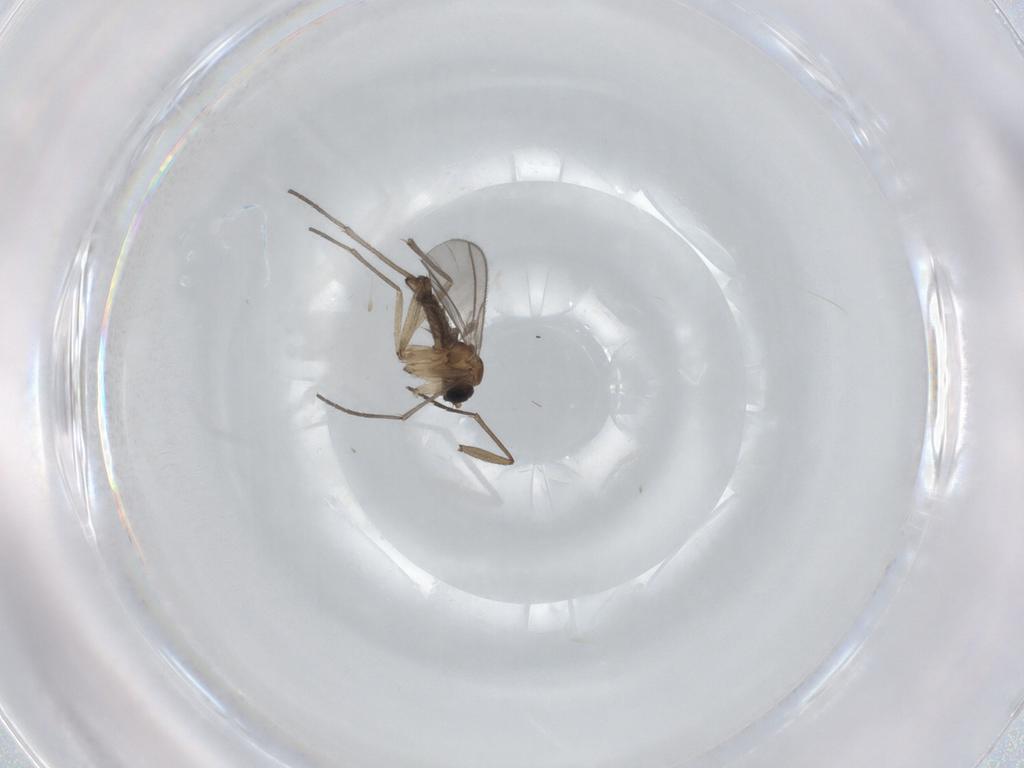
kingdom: Animalia
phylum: Arthropoda
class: Insecta
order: Diptera
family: Sciaridae
